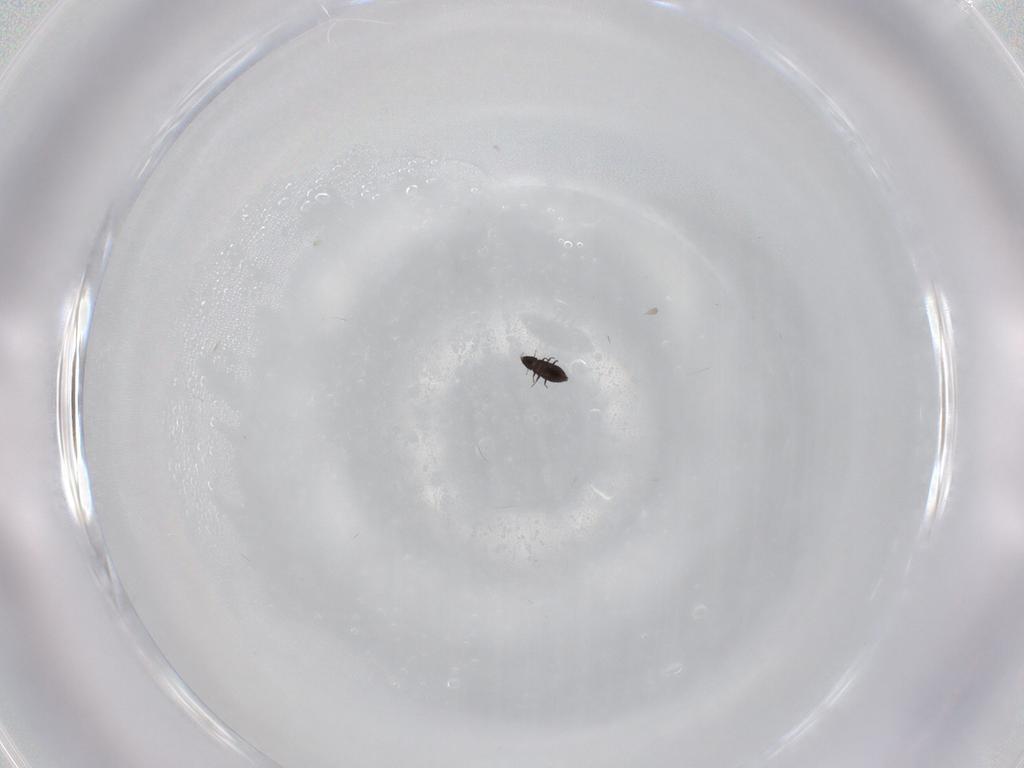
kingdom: Animalia
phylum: Arthropoda
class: Insecta
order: Coleoptera
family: Ripiphoridae
